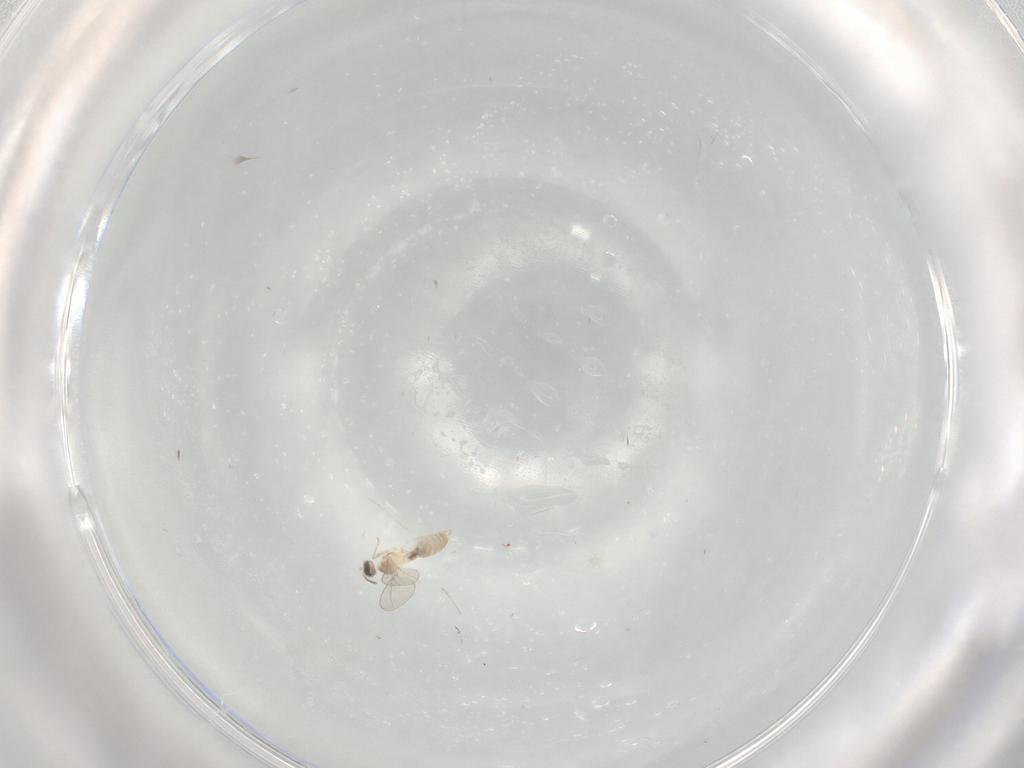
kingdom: Animalia
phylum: Arthropoda
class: Insecta
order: Diptera
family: Cecidomyiidae
